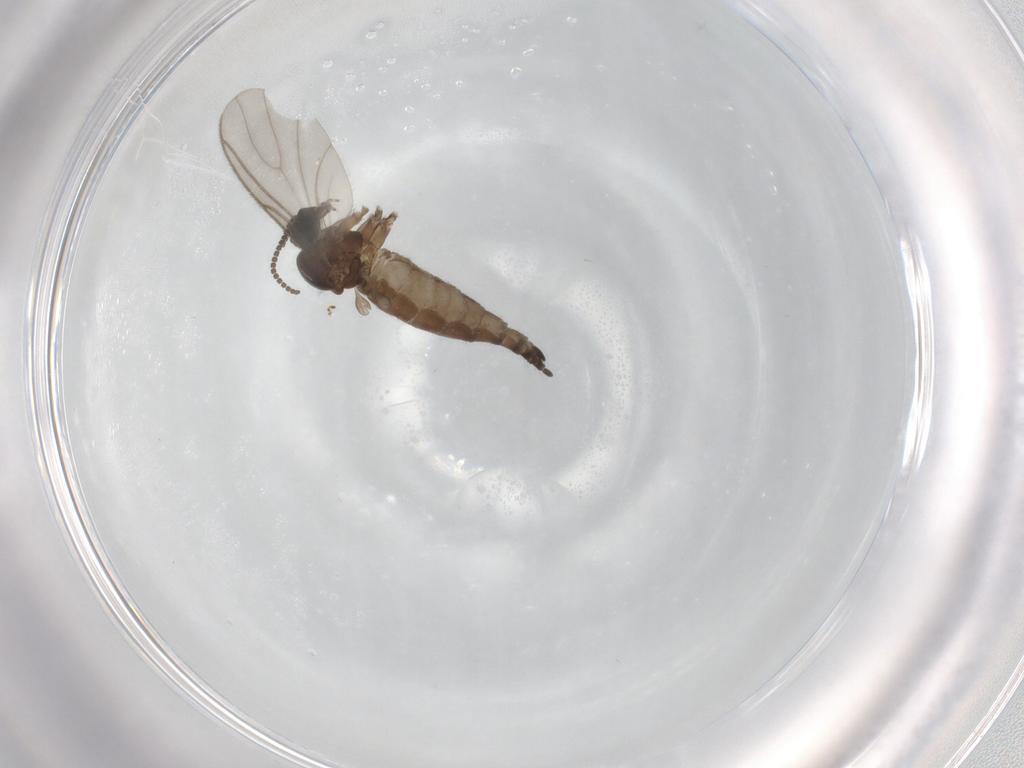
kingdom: Animalia
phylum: Arthropoda
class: Insecta
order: Diptera
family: Sciaridae
